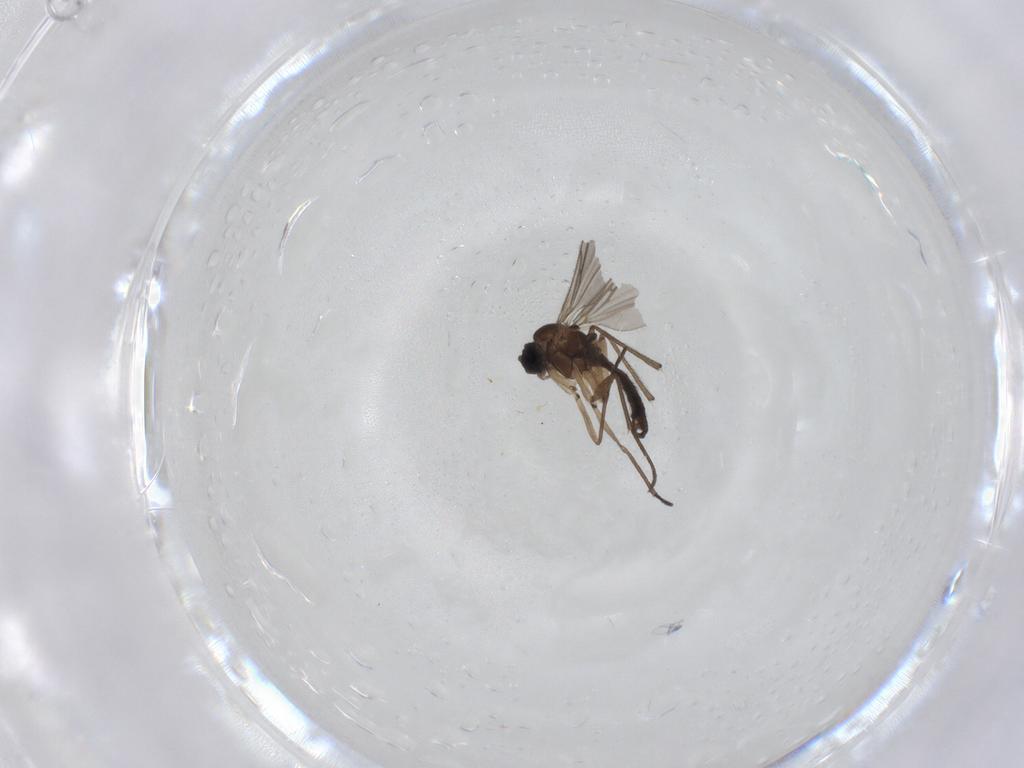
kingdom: Animalia
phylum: Arthropoda
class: Insecta
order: Diptera
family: Sciaridae
